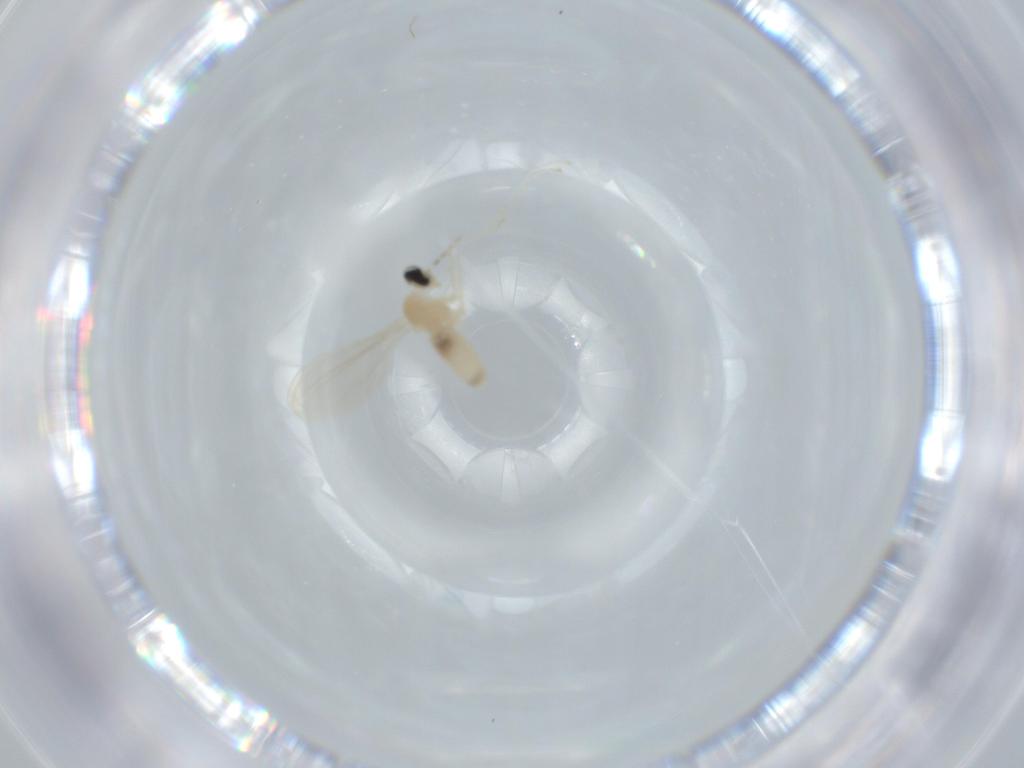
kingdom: Animalia
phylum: Arthropoda
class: Insecta
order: Diptera
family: Cecidomyiidae
